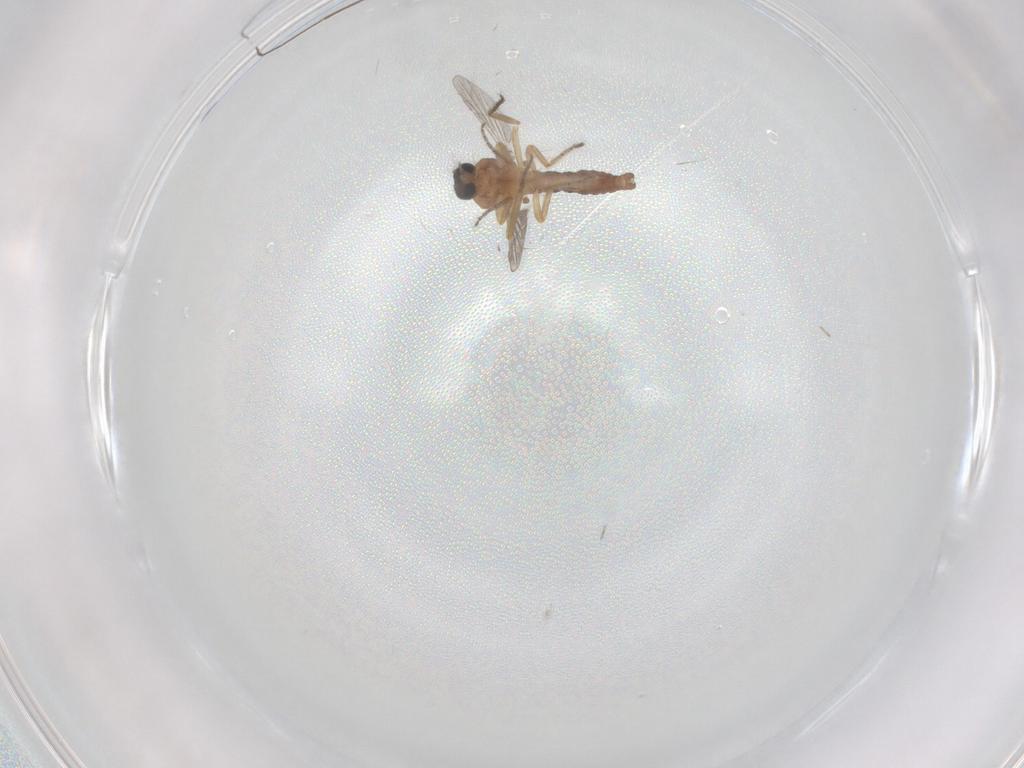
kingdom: Animalia
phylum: Arthropoda
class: Insecta
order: Diptera
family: Ceratopogonidae
